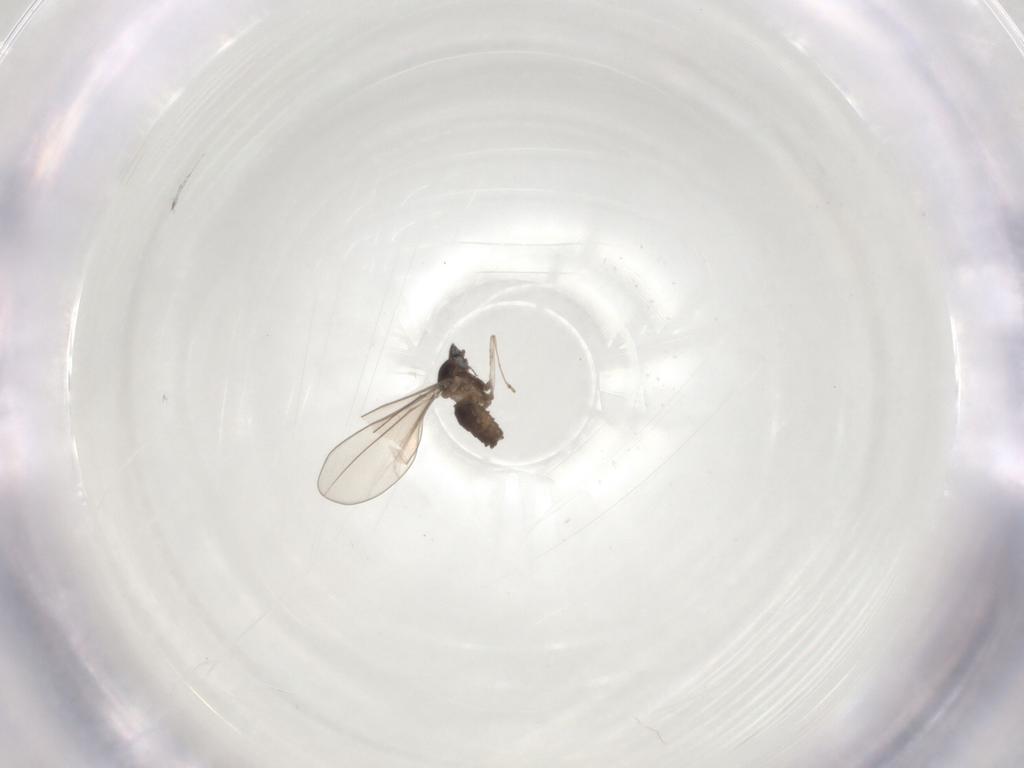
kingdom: Animalia
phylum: Arthropoda
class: Insecta
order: Diptera
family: Cecidomyiidae
